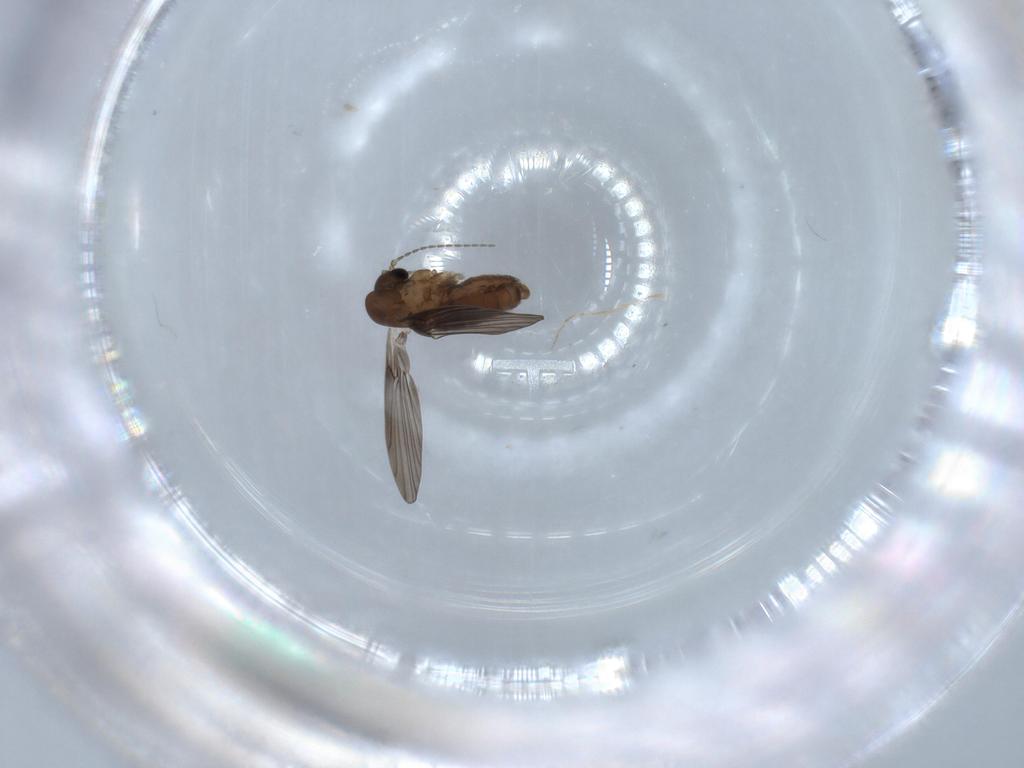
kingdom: Animalia
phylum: Arthropoda
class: Insecta
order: Diptera
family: Psychodidae
